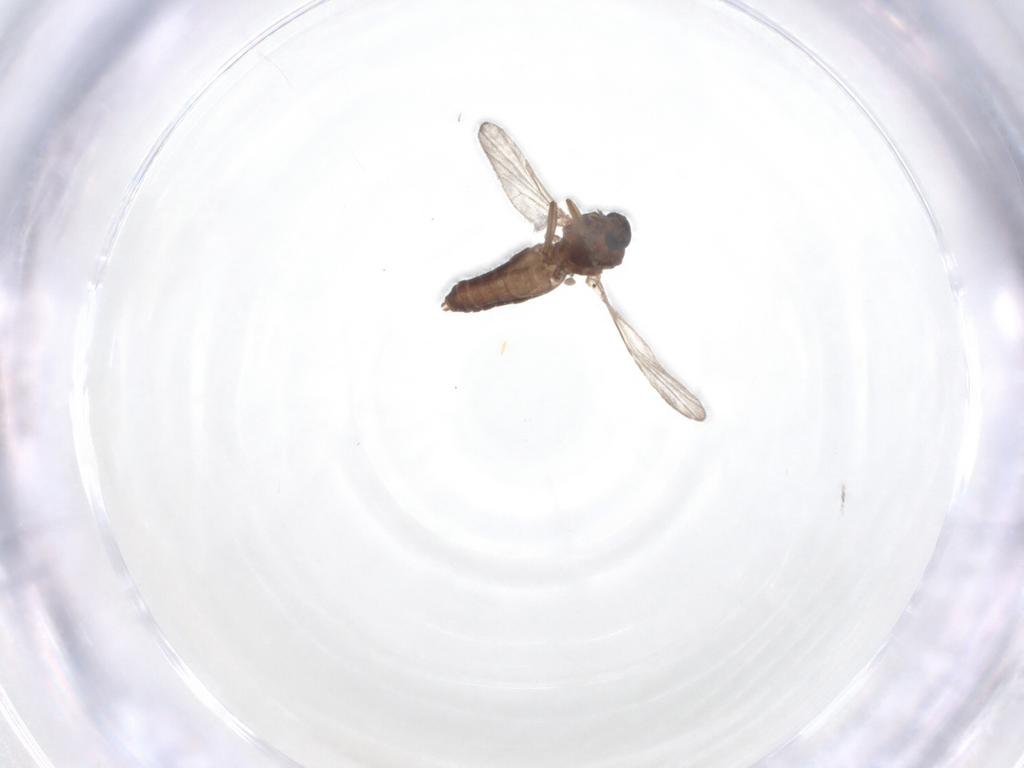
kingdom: Animalia
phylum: Arthropoda
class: Insecta
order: Diptera
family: Ceratopogonidae
